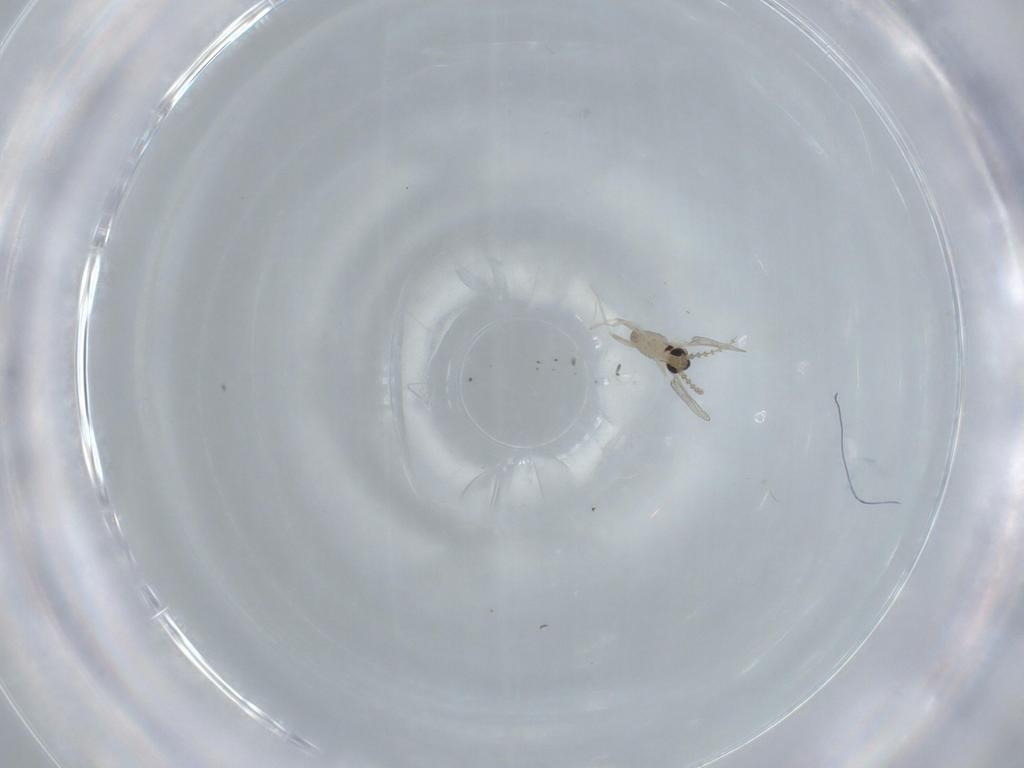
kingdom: Animalia
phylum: Arthropoda
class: Insecta
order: Diptera
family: Cecidomyiidae
